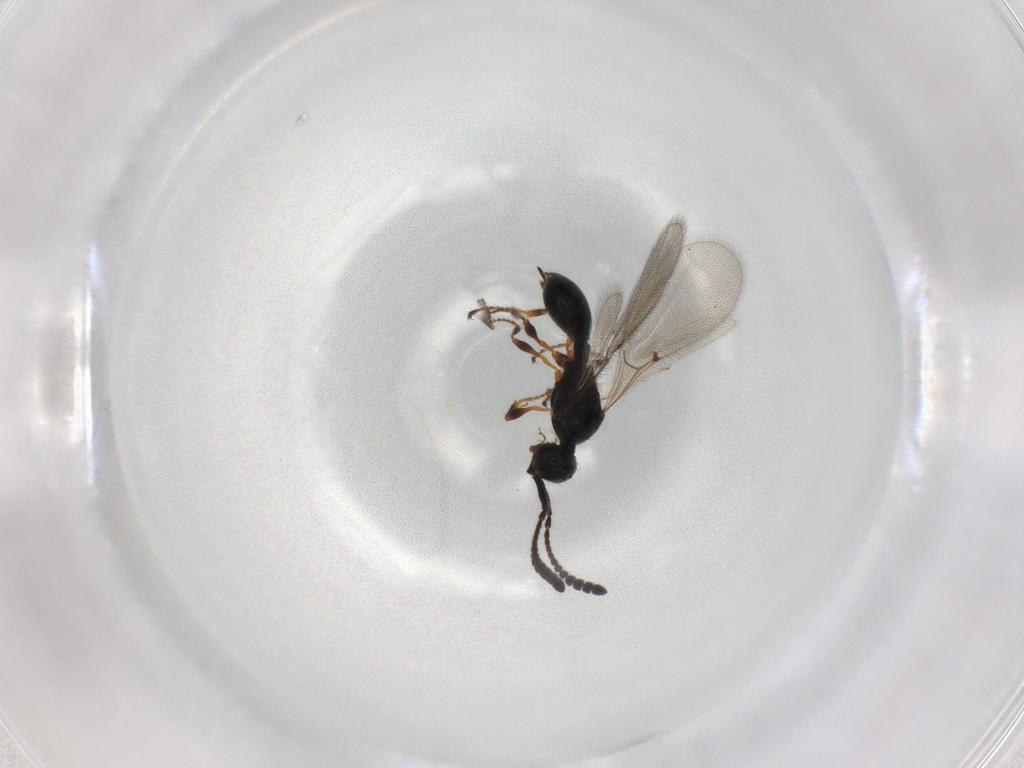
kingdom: Animalia
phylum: Arthropoda
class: Insecta
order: Hymenoptera
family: Diapriidae
